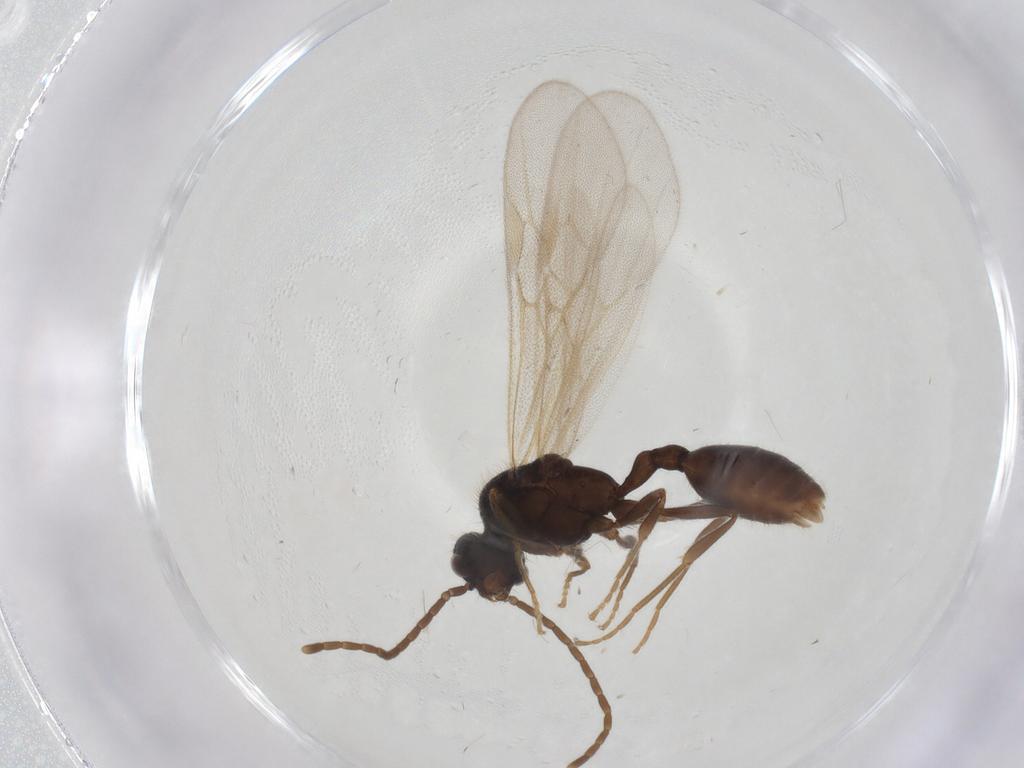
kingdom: Animalia
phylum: Arthropoda
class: Insecta
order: Hymenoptera
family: Formicidae
